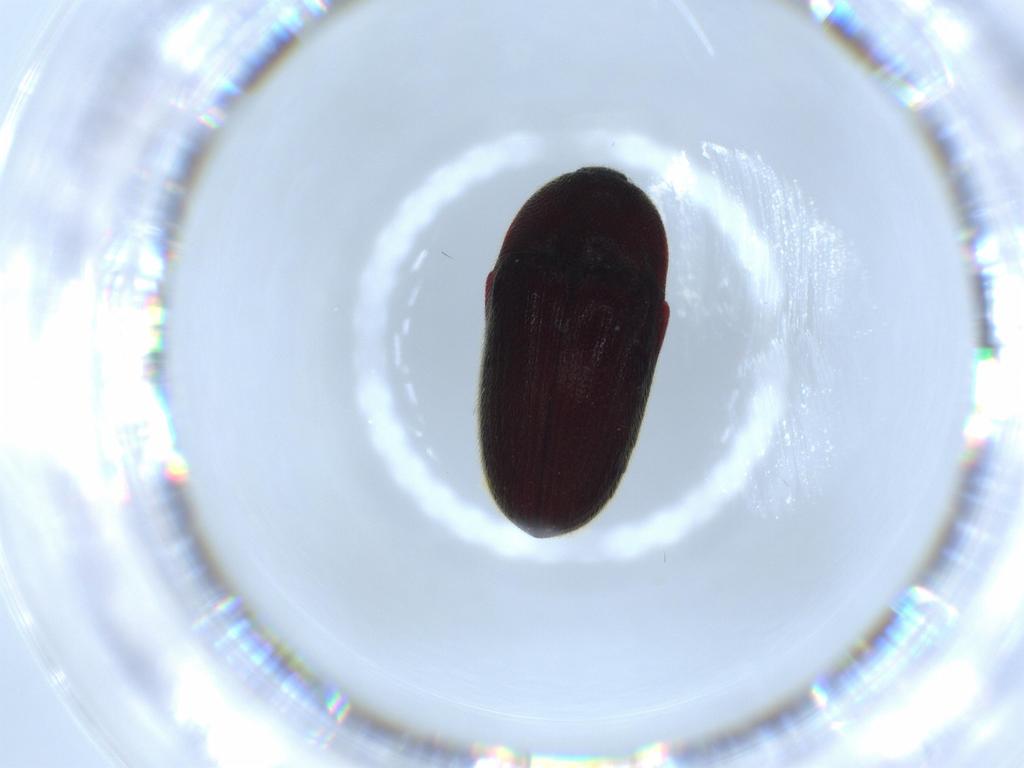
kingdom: Animalia
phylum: Arthropoda
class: Insecta
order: Coleoptera
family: Throscidae
